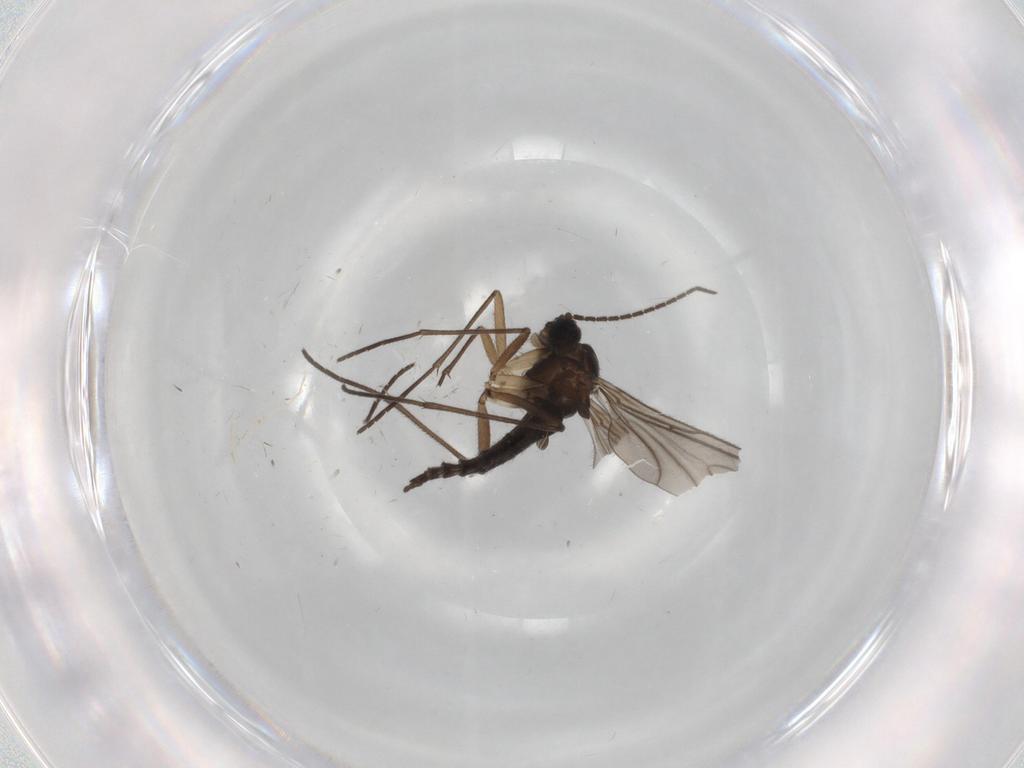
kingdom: Animalia
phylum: Arthropoda
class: Insecta
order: Diptera
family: Sciaridae
